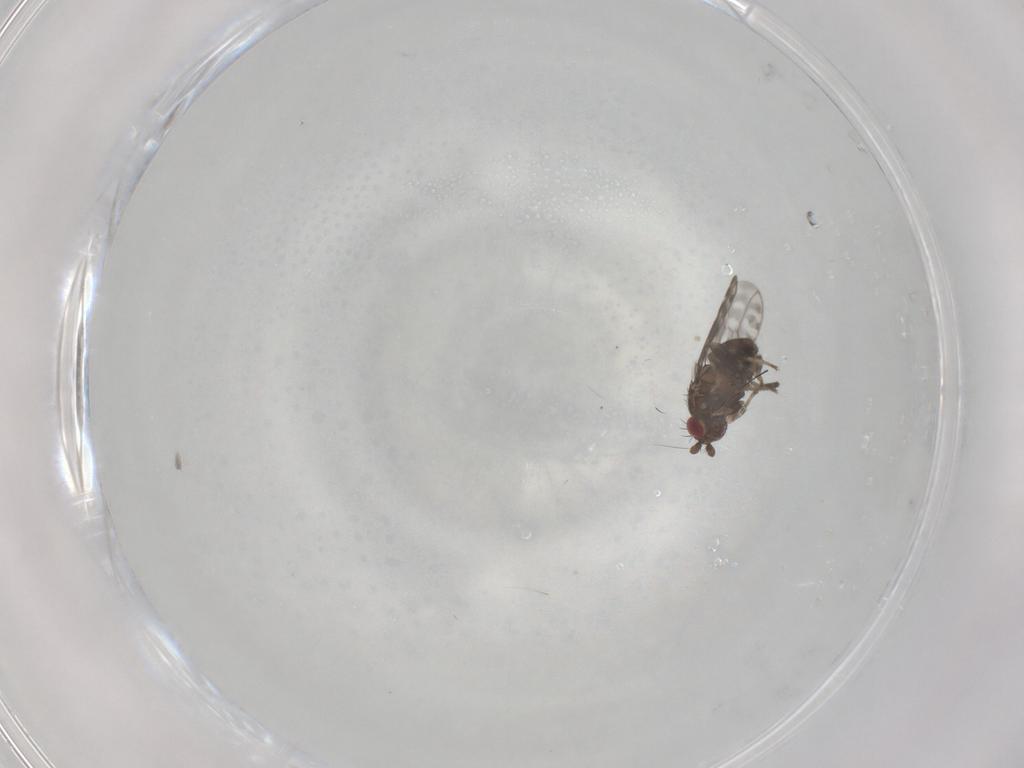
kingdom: Animalia
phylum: Arthropoda
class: Insecta
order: Diptera
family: Sphaeroceridae
